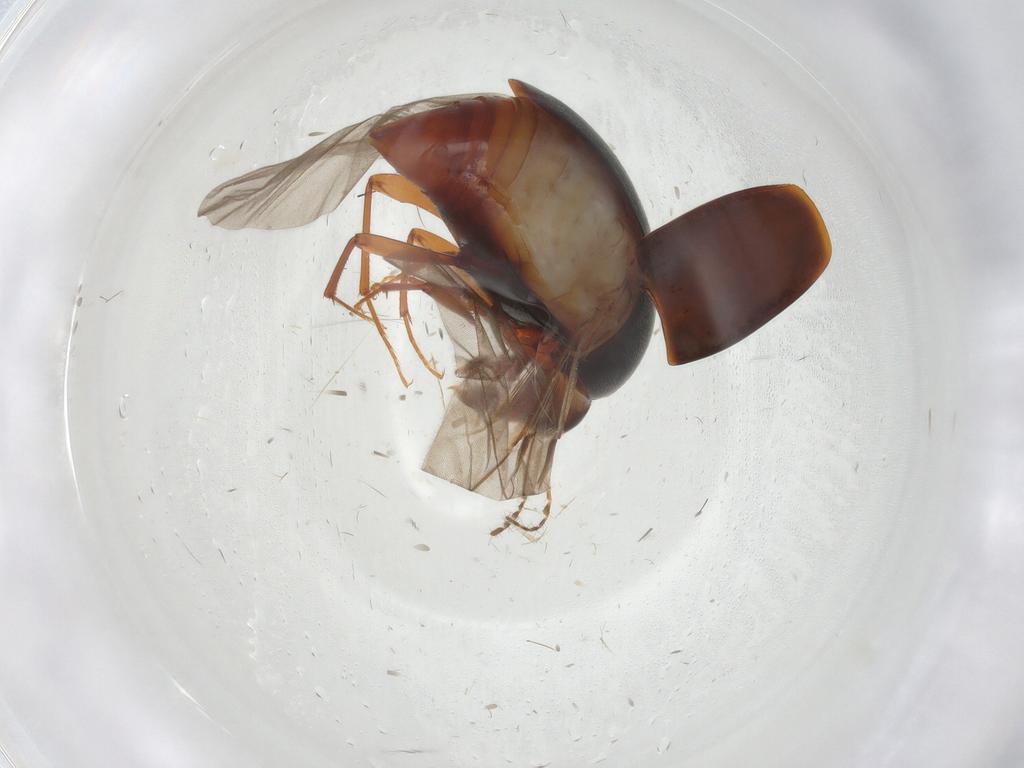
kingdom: Animalia
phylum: Arthropoda
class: Insecta
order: Coleoptera
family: Staphylinidae
